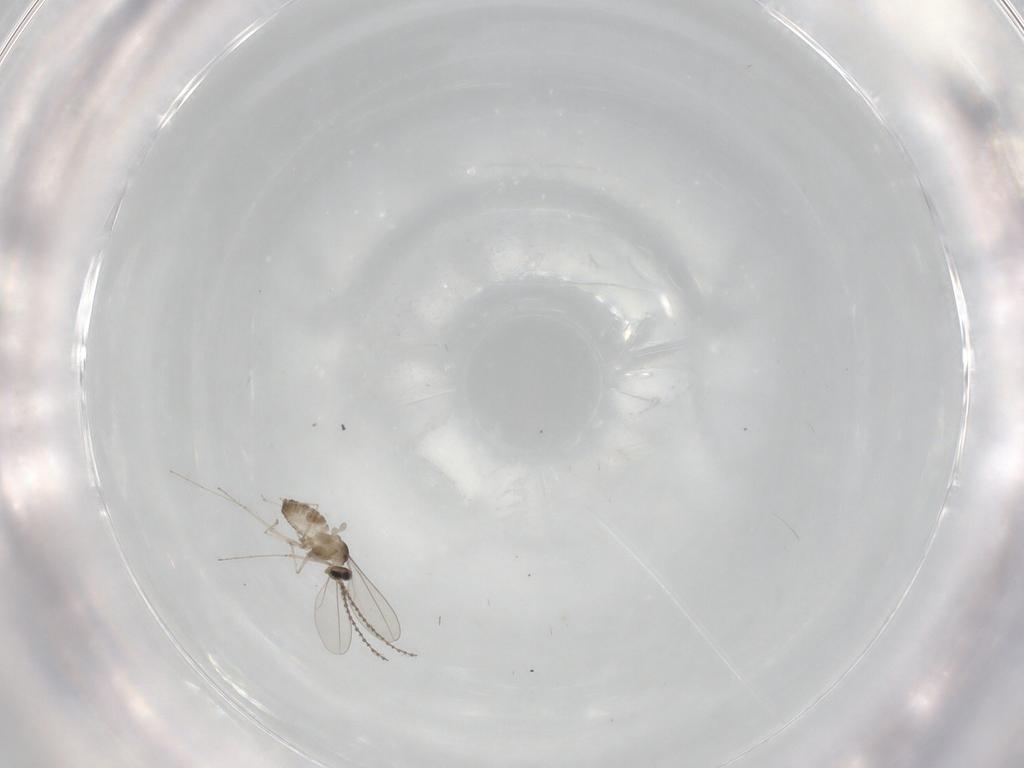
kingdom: Animalia
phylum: Arthropoda
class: Insecta
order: Diptera
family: Cecidomyiidae
